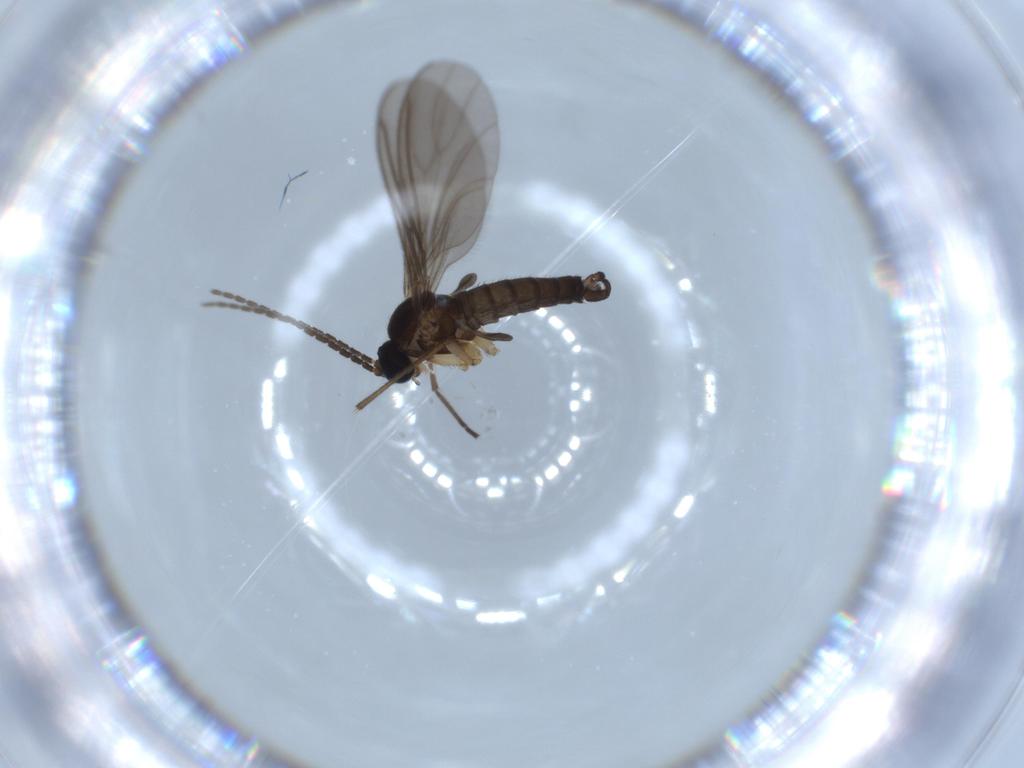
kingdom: Animalia
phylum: Arthropoda
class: Insecta
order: Diptera
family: Sciaridae
